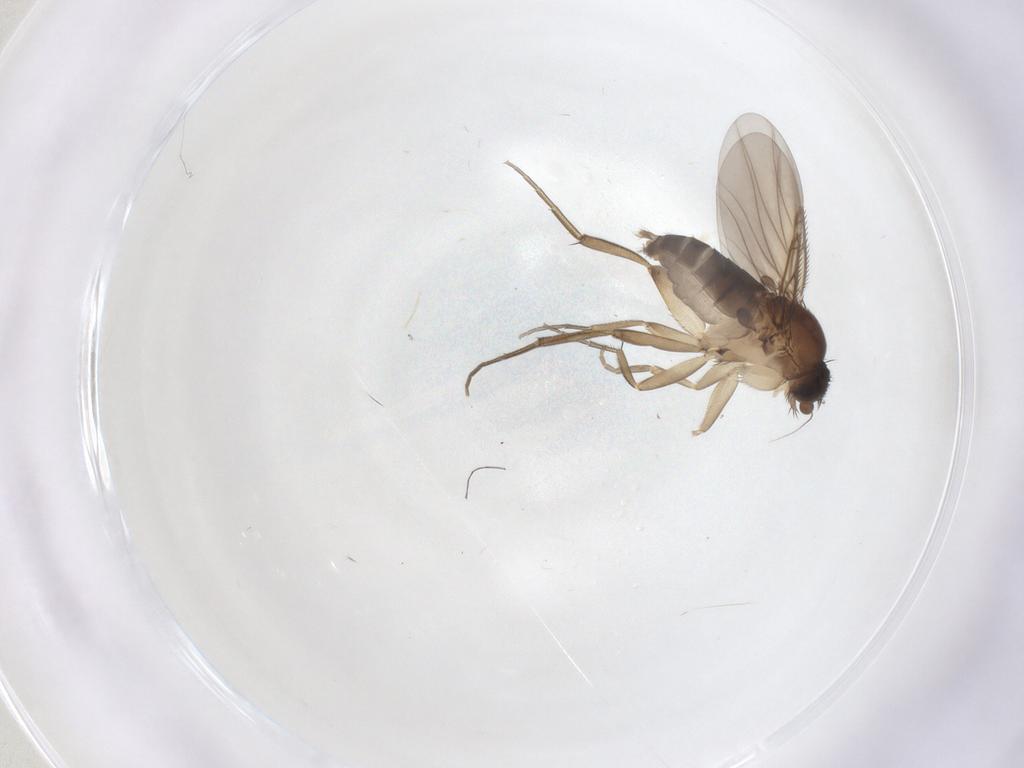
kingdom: Animalia
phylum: Arthropoda
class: Insecta
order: Diptera
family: Phoridae
